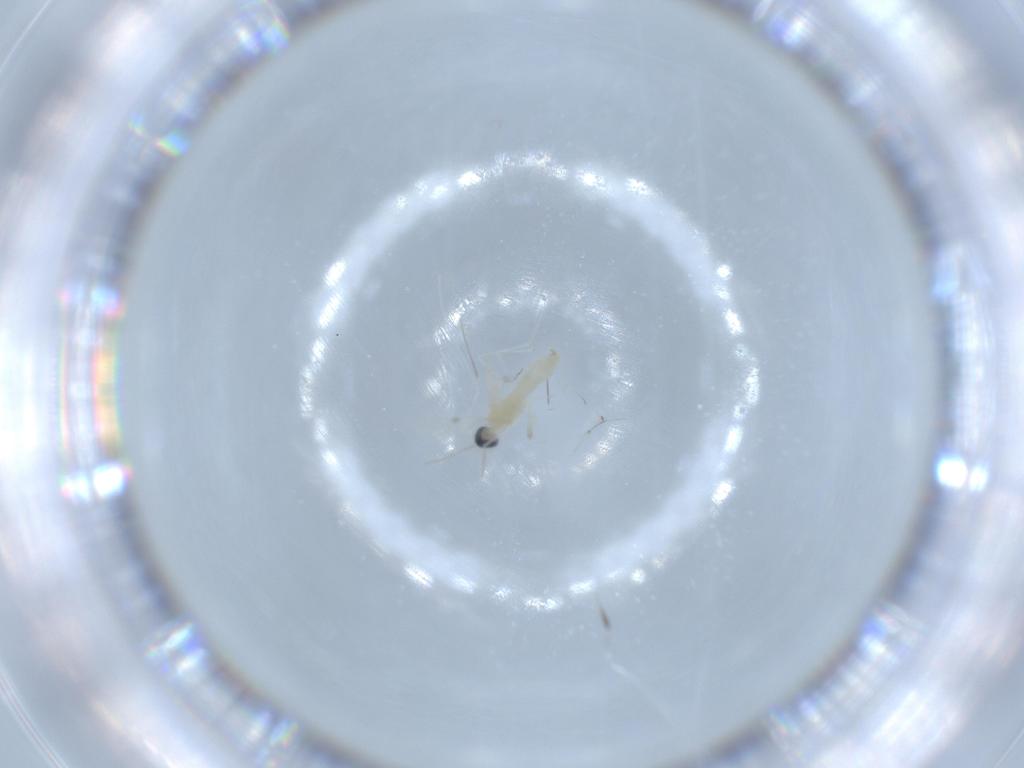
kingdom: Animalia
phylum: Arthropoda
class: Insecta
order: Diptera
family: Cecidomyiidae
